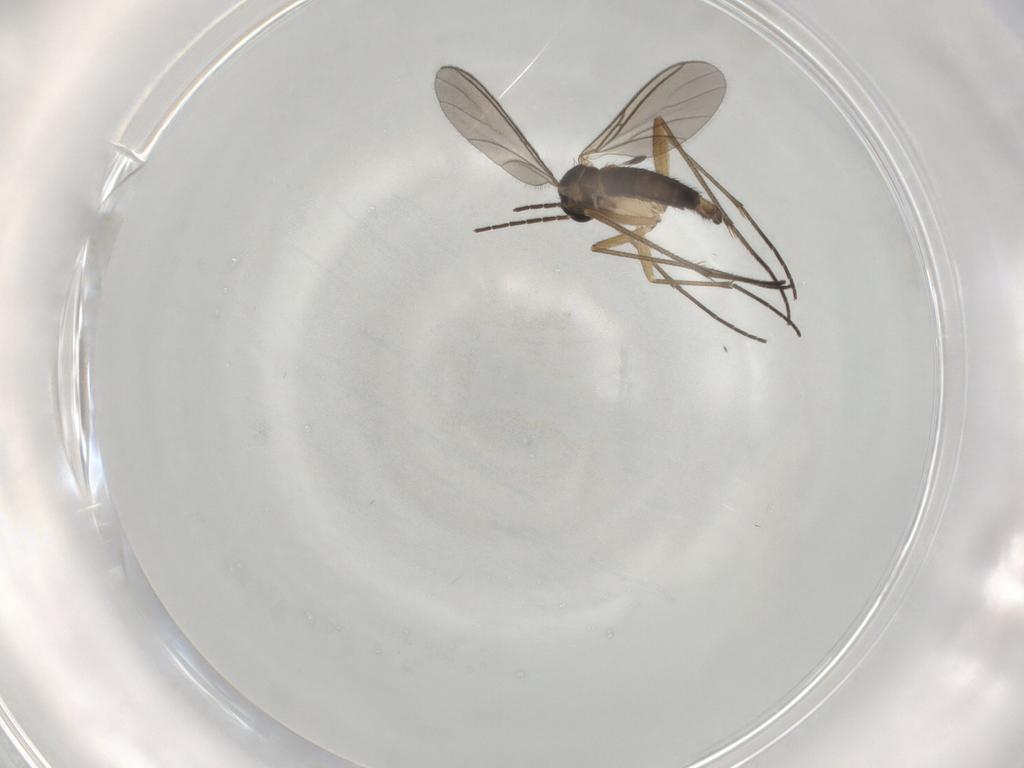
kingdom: Animalia
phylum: Arthropoda
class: Insecta
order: Diptera
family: Sciaridae
